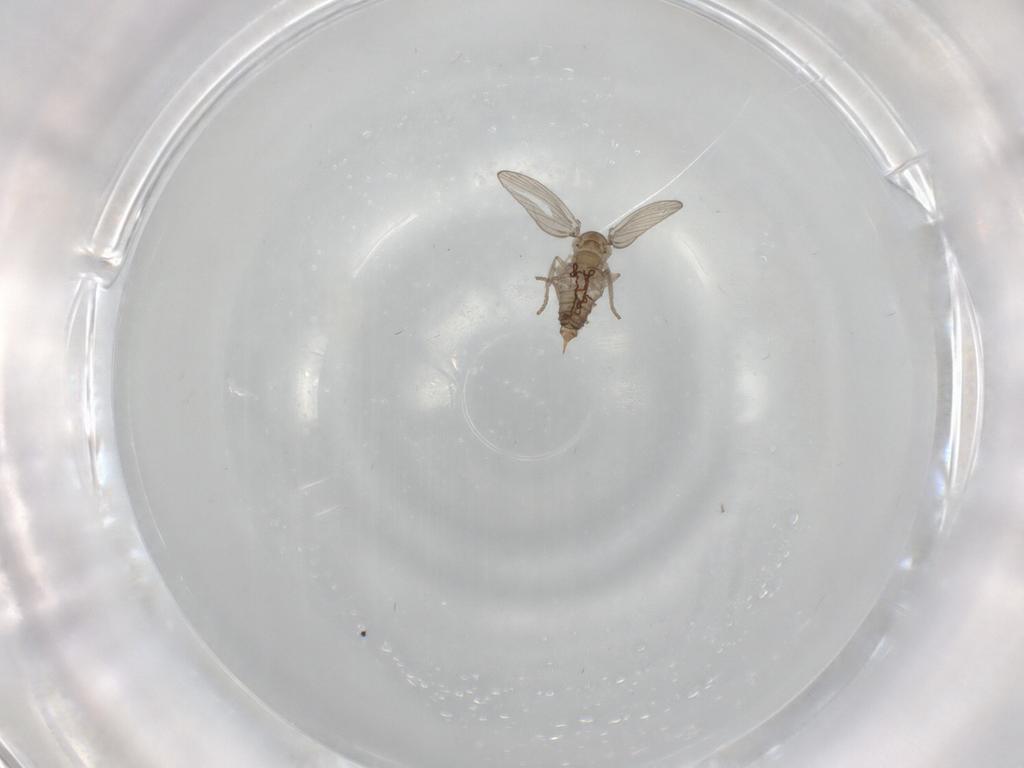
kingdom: Animalia
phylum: Arthropoda
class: Insecta
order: Diptera
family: Psychodidae
